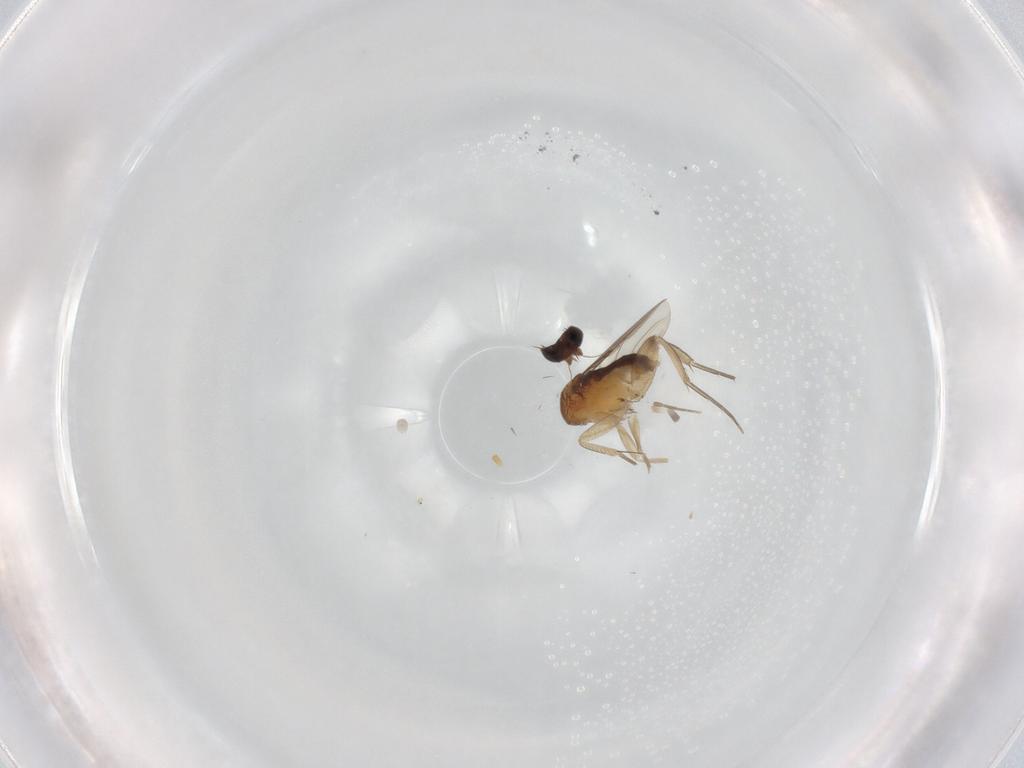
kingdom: Animalia
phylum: Arthropoda
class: Insecta
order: Diptera
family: Phoridae
